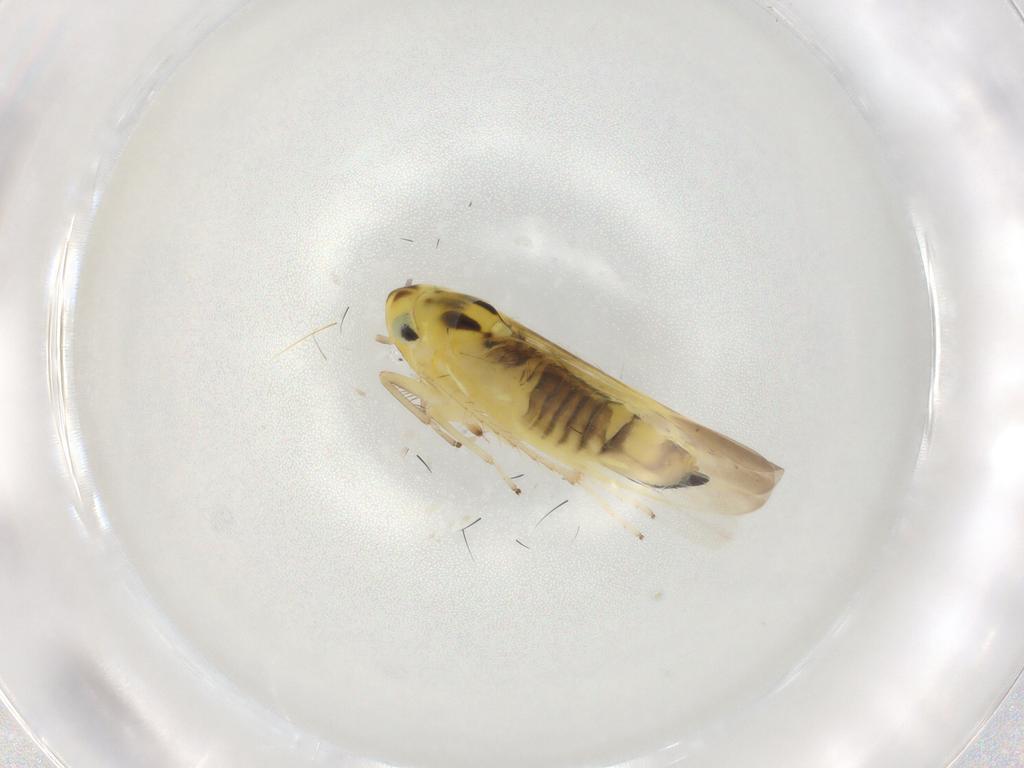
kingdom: Animalia
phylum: Arthropoda
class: Insecta
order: Hemiptera
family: Cicadellidae
